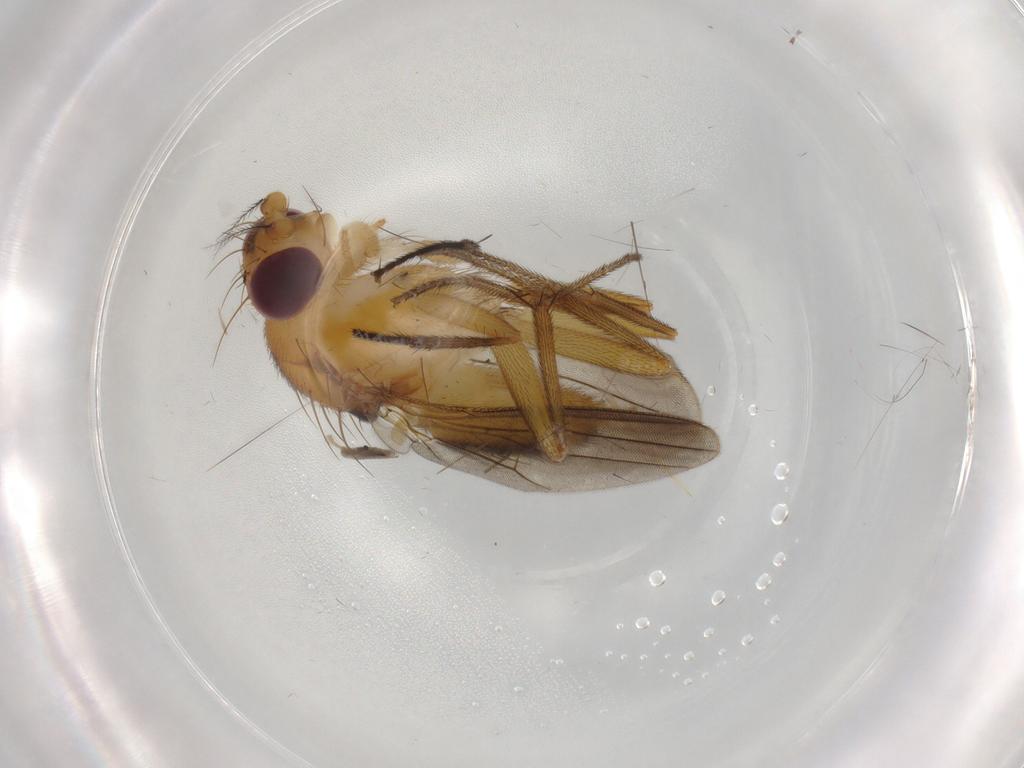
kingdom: Animalia
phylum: Arthropoda
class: Insecta
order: Diptera
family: Clusiidae
